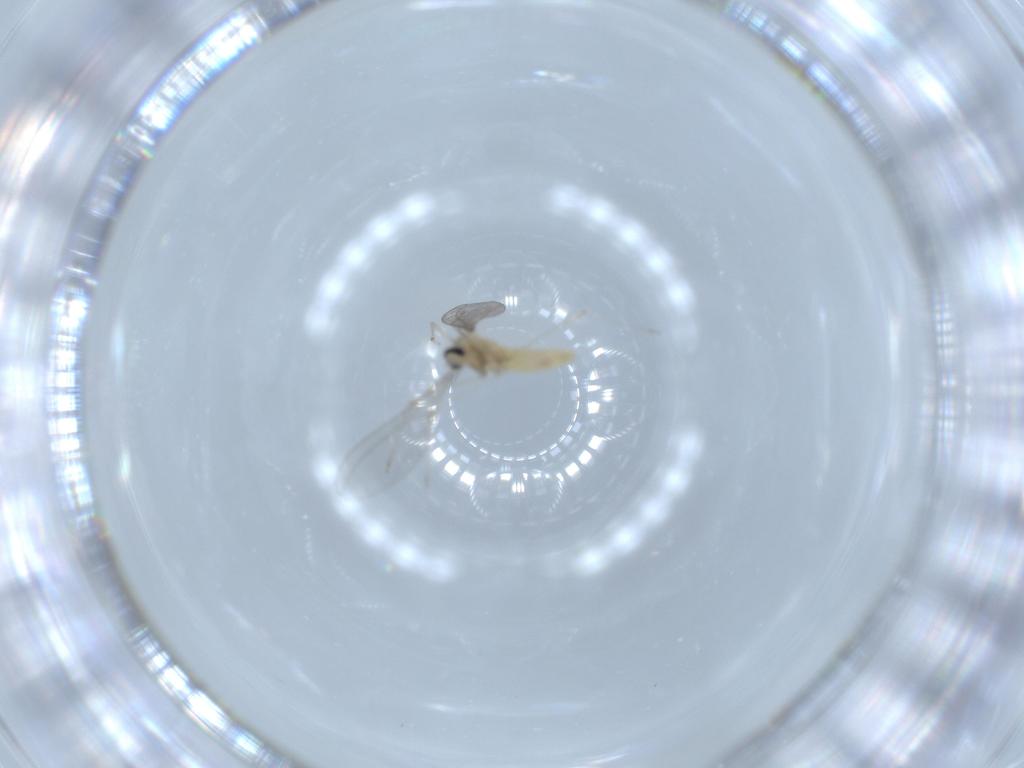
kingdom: Animalia
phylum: Arthropoda
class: Insecta
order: Diptera
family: Cecidomyiidae
